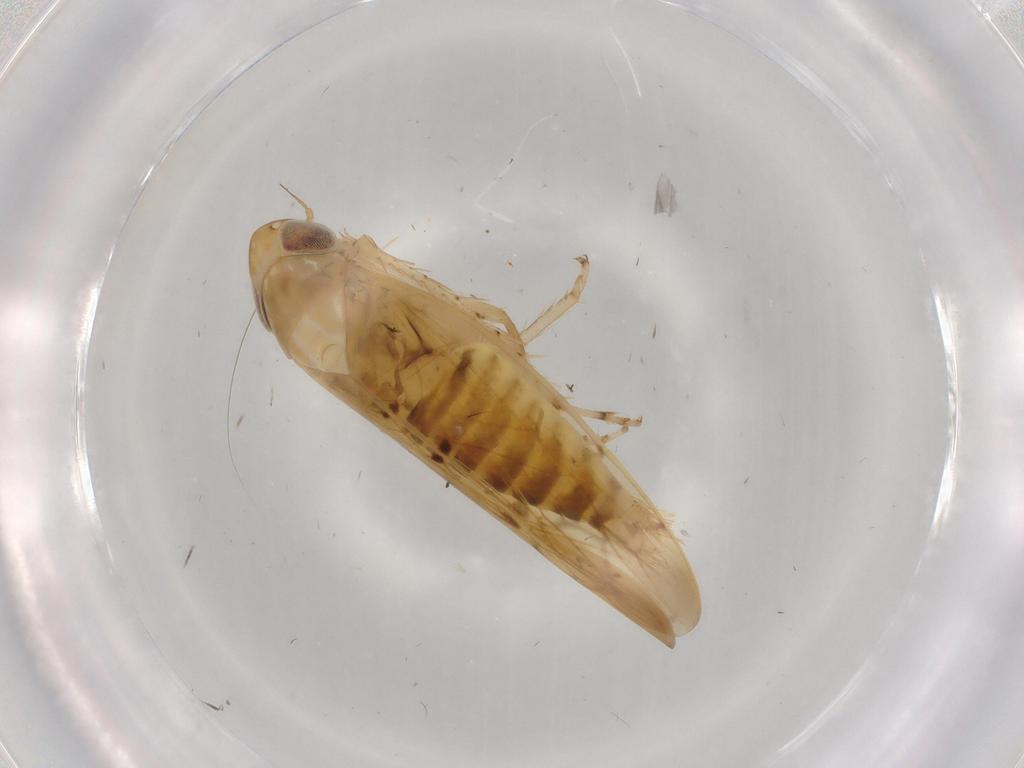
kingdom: Animalia
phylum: Arthropoda
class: Insecta
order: Hemiptera
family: Cicadellidae
